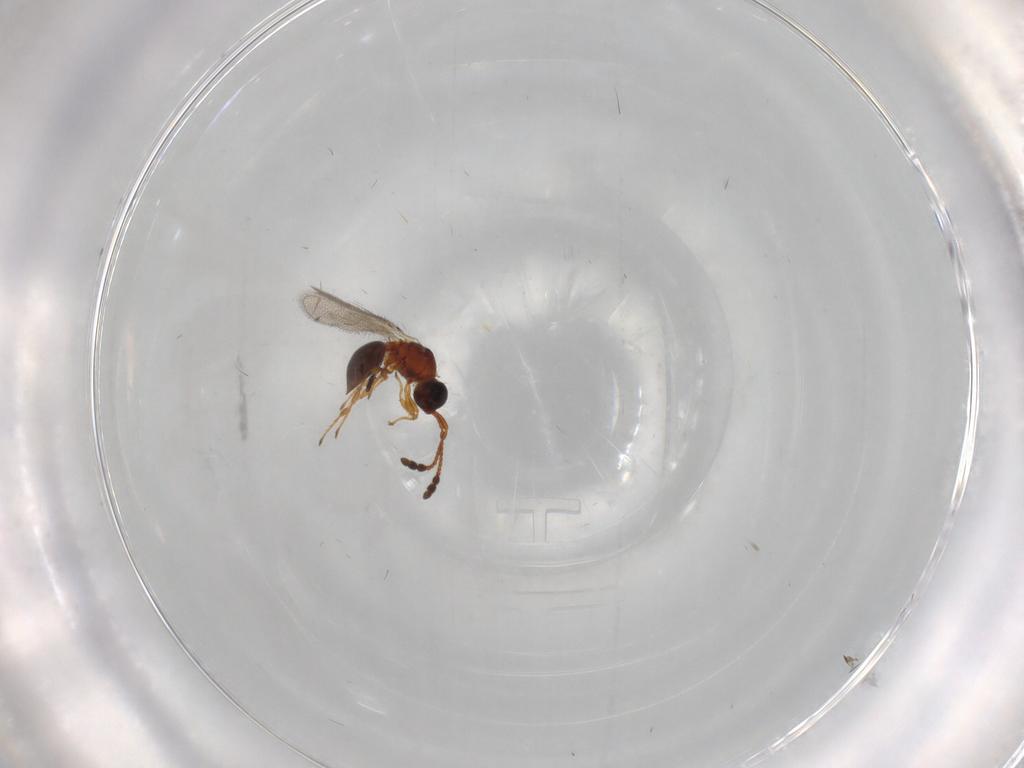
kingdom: Animalia
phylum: Arthropoda
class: Insecta
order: Hymenoptera
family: Diapriidae
